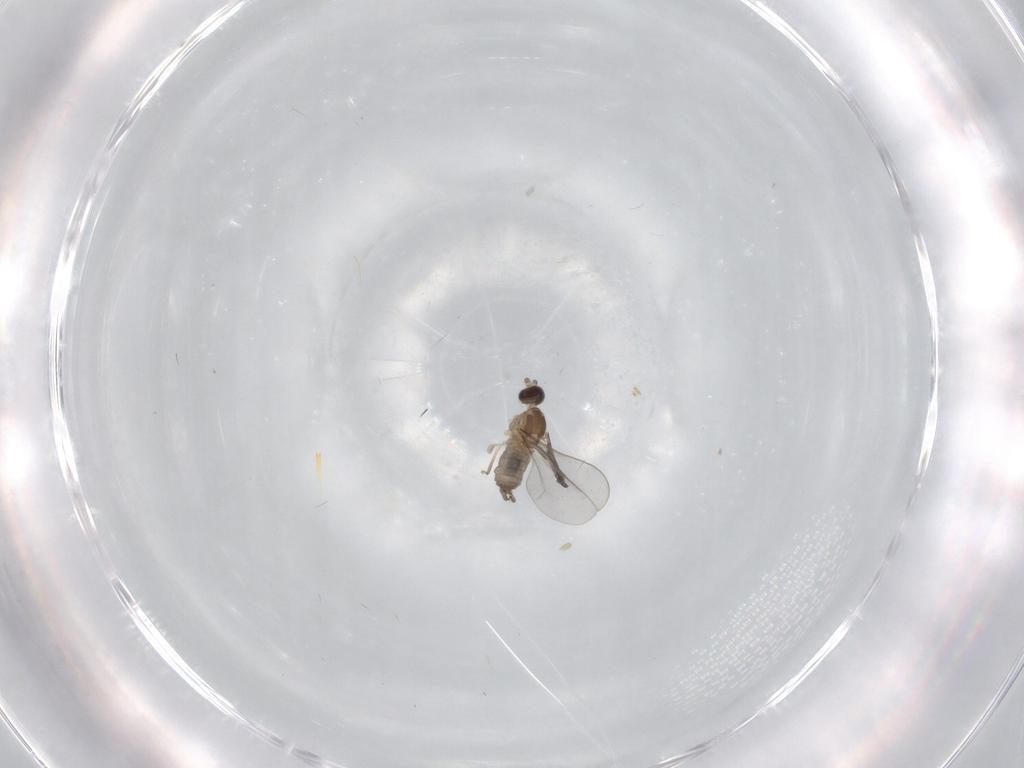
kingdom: Animalia
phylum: Arthropoda
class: Insecta
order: Diptera
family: Cecidomyiidae
